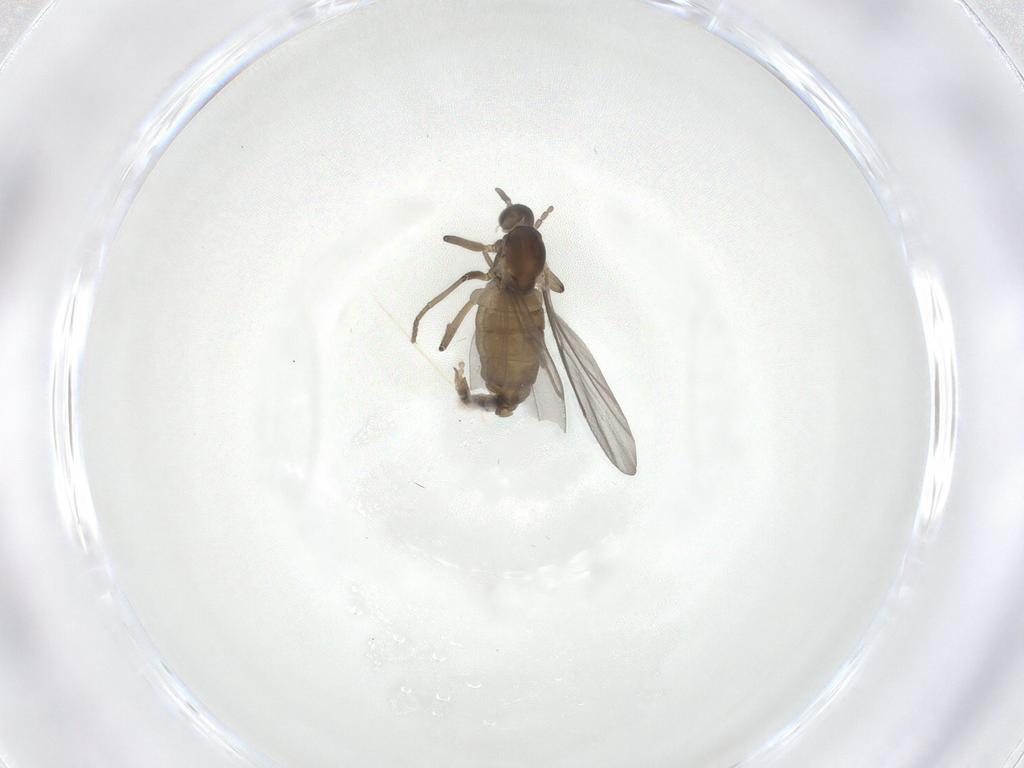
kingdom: Animalia
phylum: Arthropoda
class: Insecta
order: Diptera
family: Cecidomyiidae
